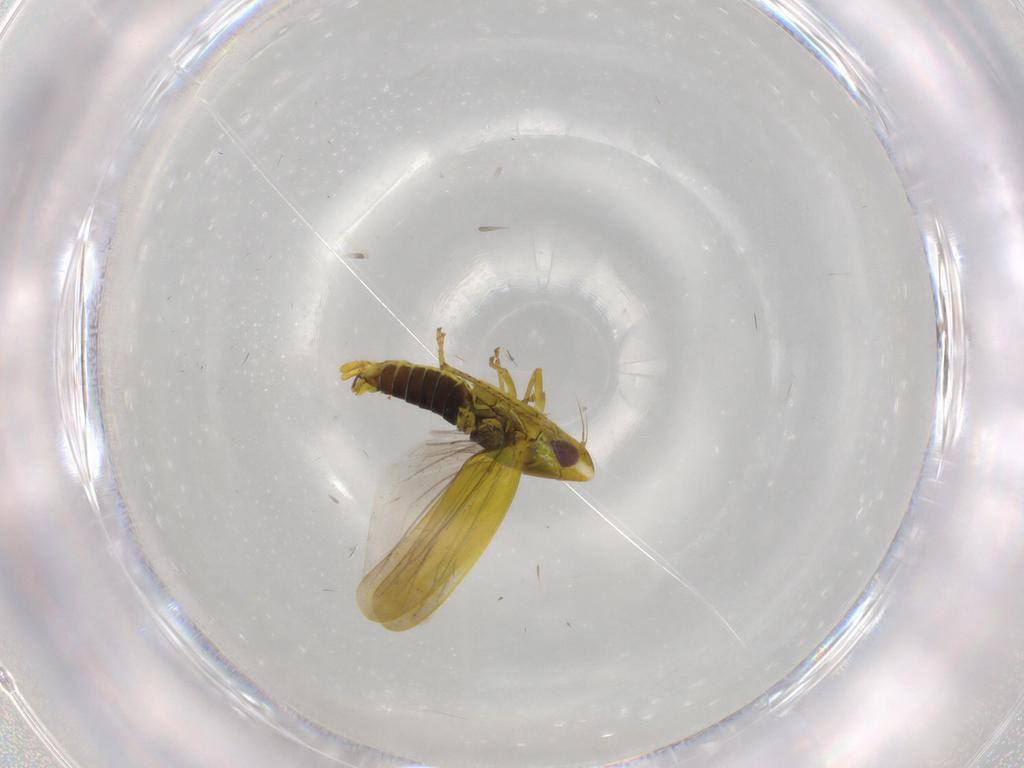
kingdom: Animalia
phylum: Arthropoda
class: Insecta
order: Hemiptera
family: Cicadellidae
